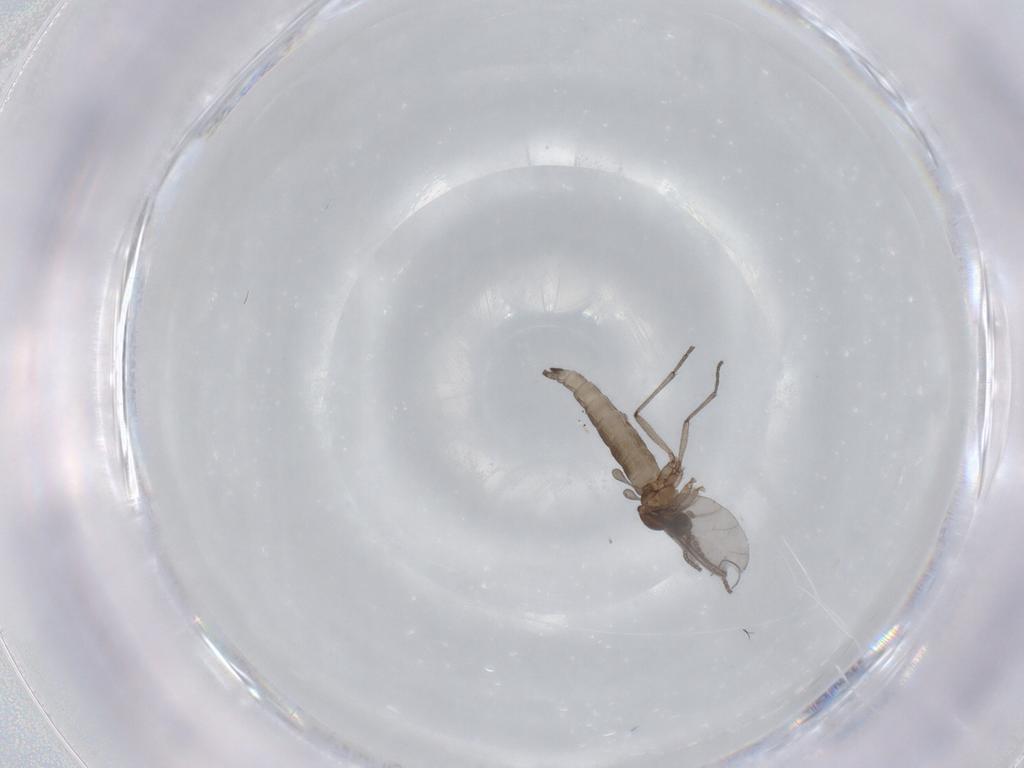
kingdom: Animalia
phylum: Arthropoda
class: Insecta
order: Diptera
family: Sciaridae
